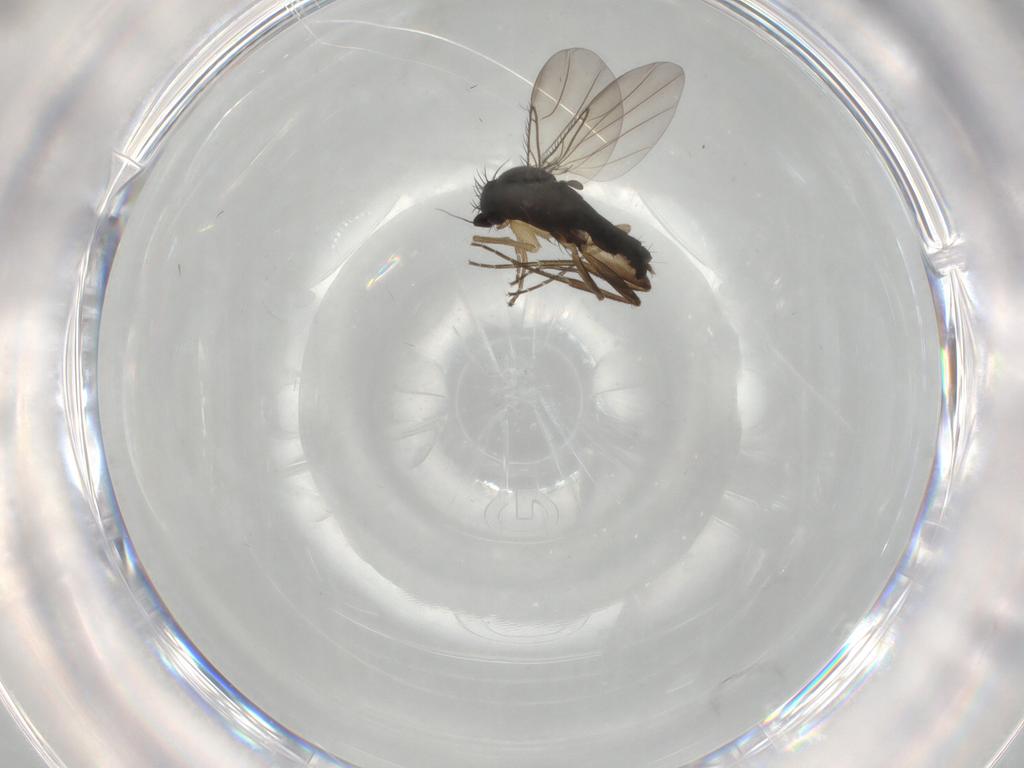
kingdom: Animalia
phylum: Arthropoda
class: Insecta
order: Diptera
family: Phoridae
